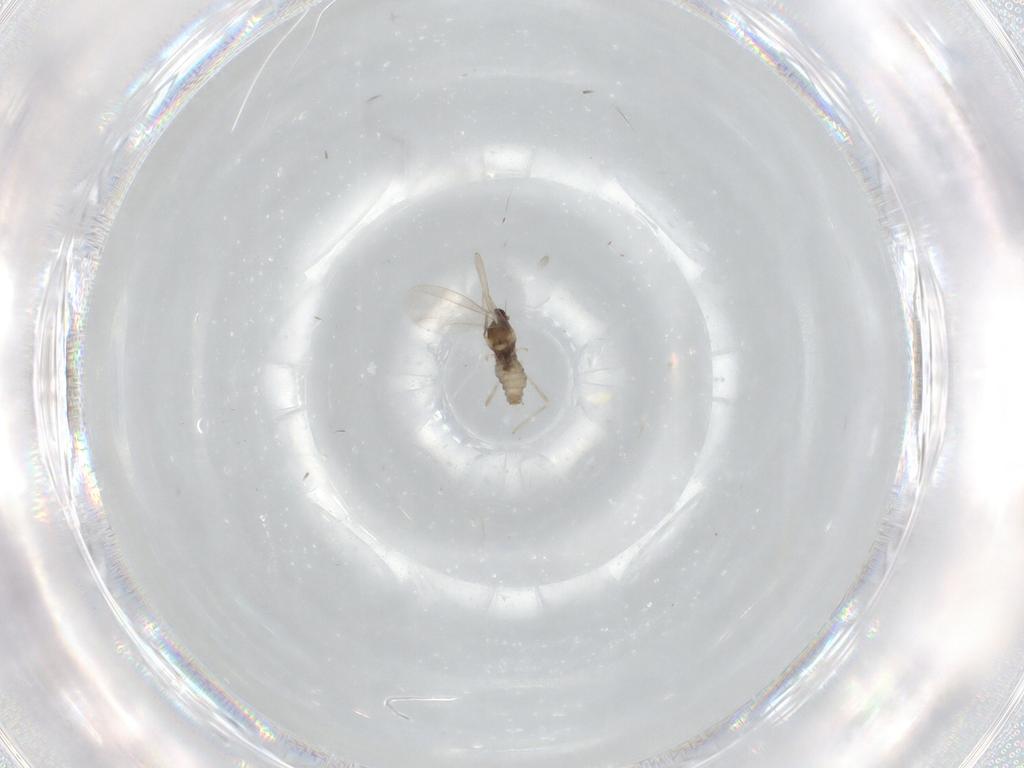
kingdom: Animalia
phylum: Arthropoda
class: Insecta
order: Diptera
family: Cecidomyiidae
